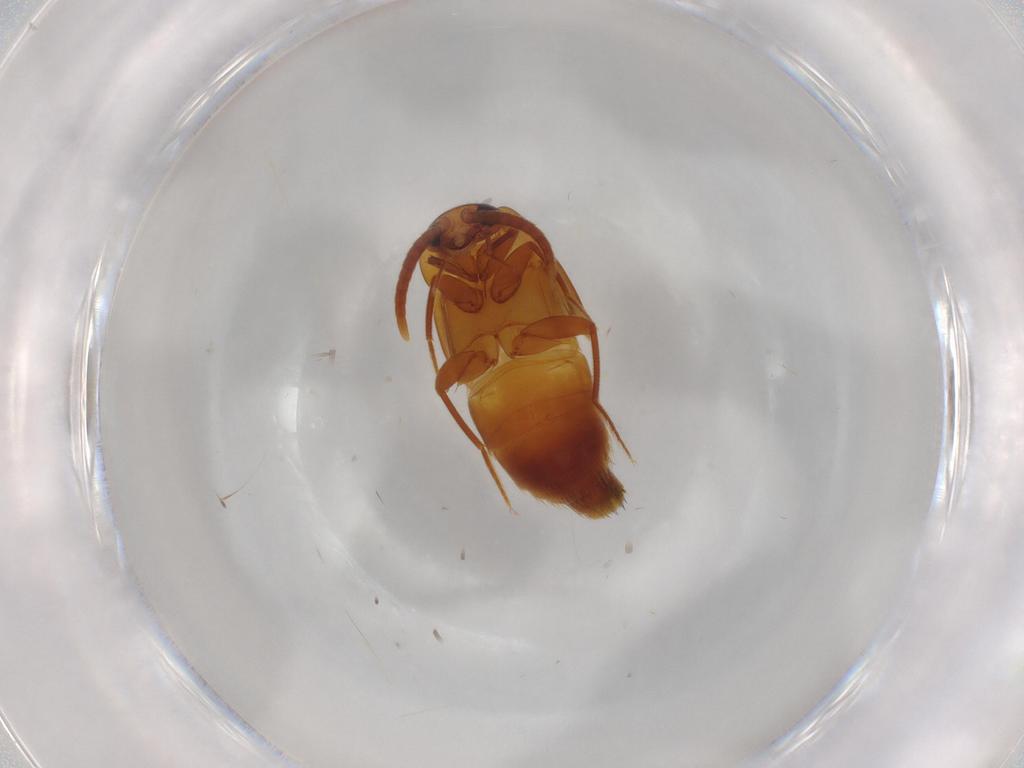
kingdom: Animalia
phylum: Arthropoda
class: Insecta
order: Coleoptera
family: Staphylinidae
